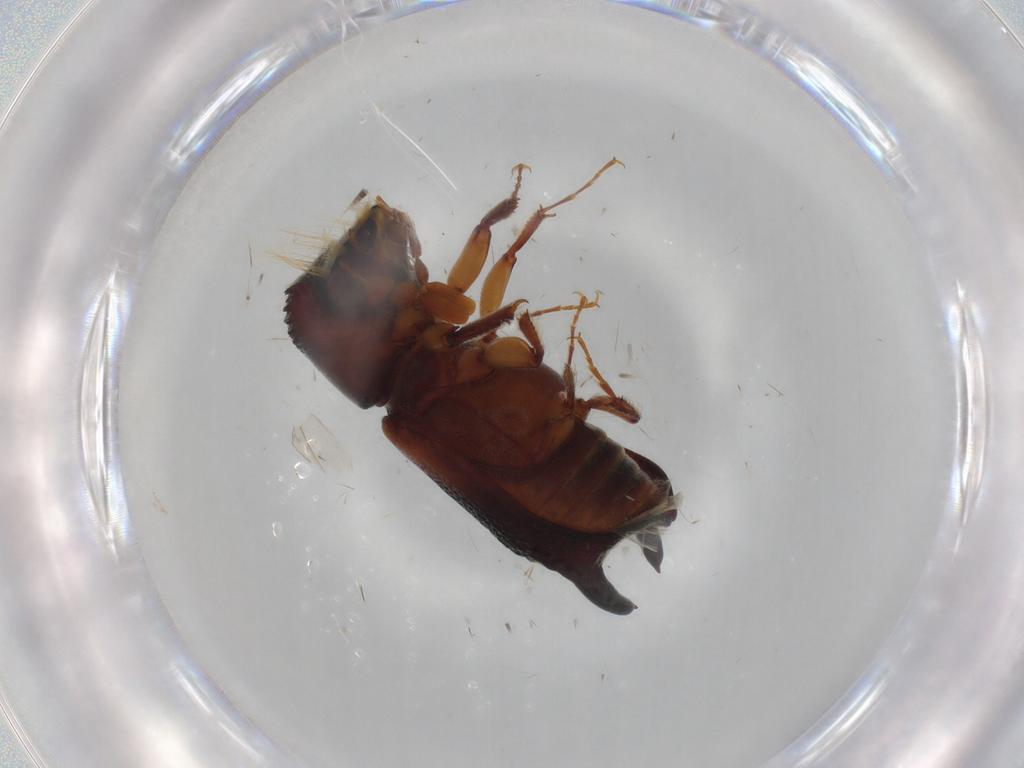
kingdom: Animalia
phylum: Arthropoda
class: Insecta
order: Coleoptera
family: Bostrichidae
